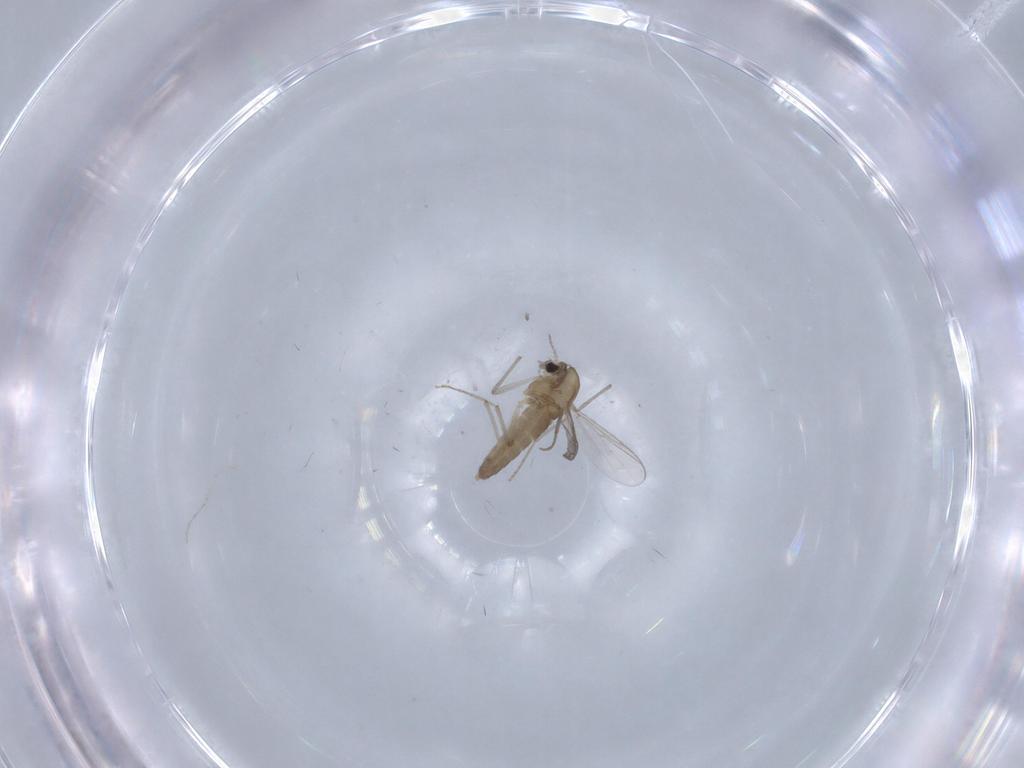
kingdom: Animalia
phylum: Arthropoda
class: Insecta
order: Diptera
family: Chironomidae
